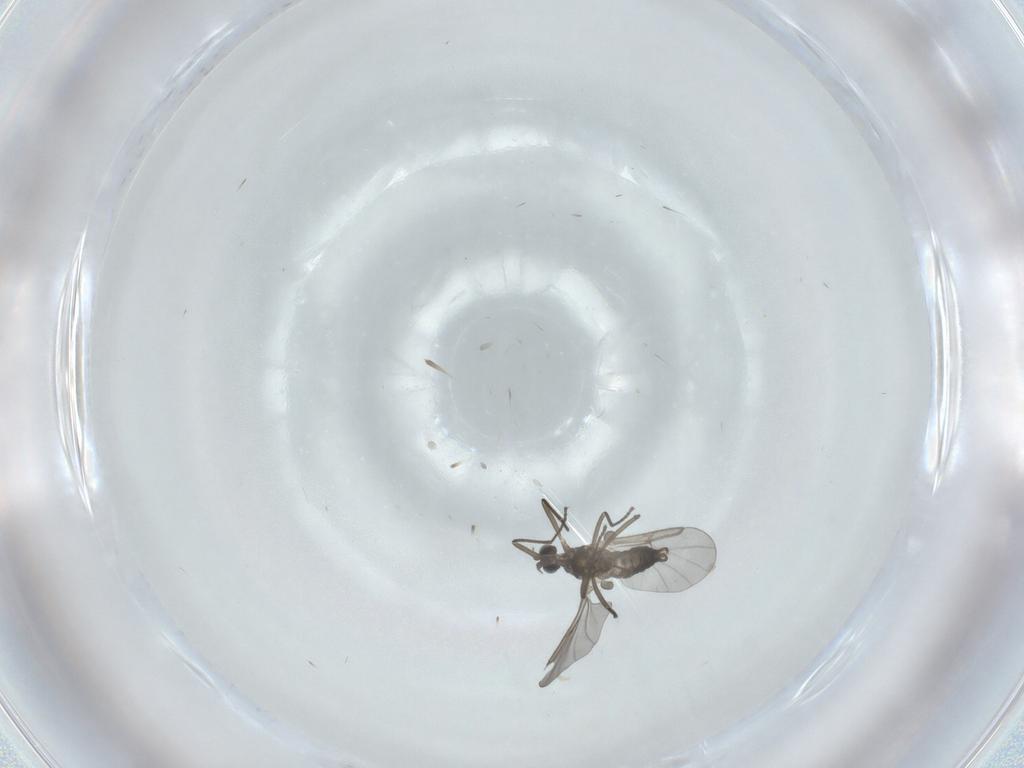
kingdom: Animalia
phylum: Arthropoda
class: Insecta
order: Diptera
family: Cecidomyiidae
